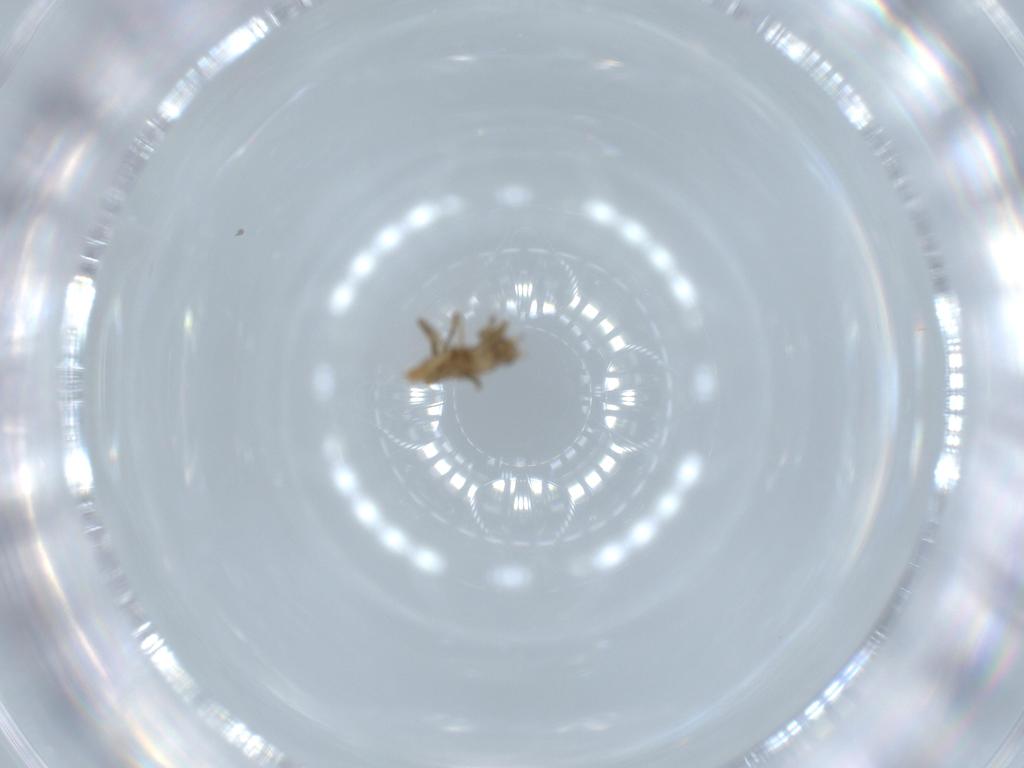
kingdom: Animalia
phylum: Arthropoda
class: Insecta
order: Diptera
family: Phoridae
